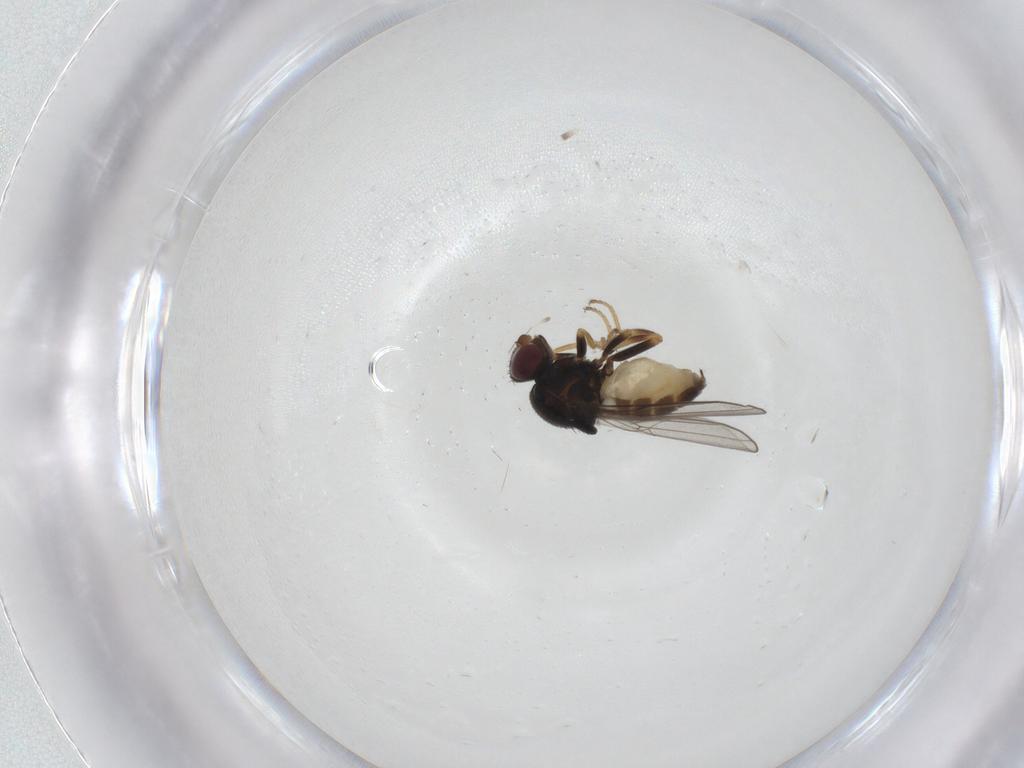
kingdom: Animalia
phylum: Arthropoda
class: Insecta
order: Diptera
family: Chloropidae
